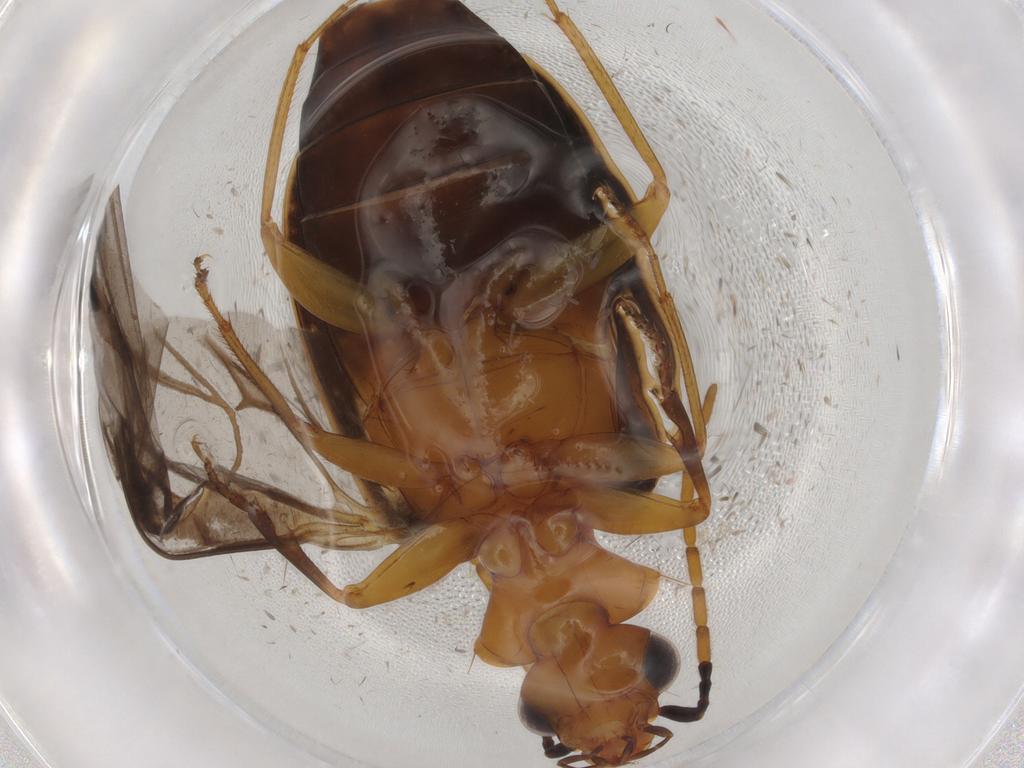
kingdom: Animalia
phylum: Arthropoda
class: Insecta
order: Coleoptera
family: Carabidae
